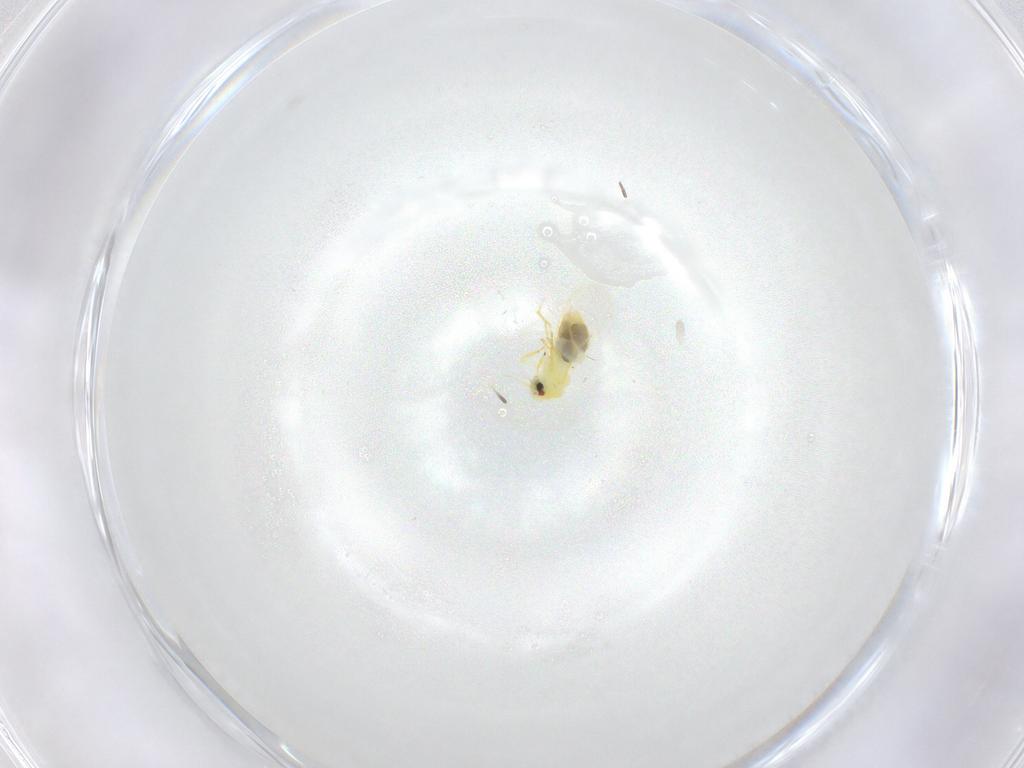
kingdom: Animalia
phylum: Arthropoda
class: Insecta
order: Hemiptera
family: Aleyrodidae
